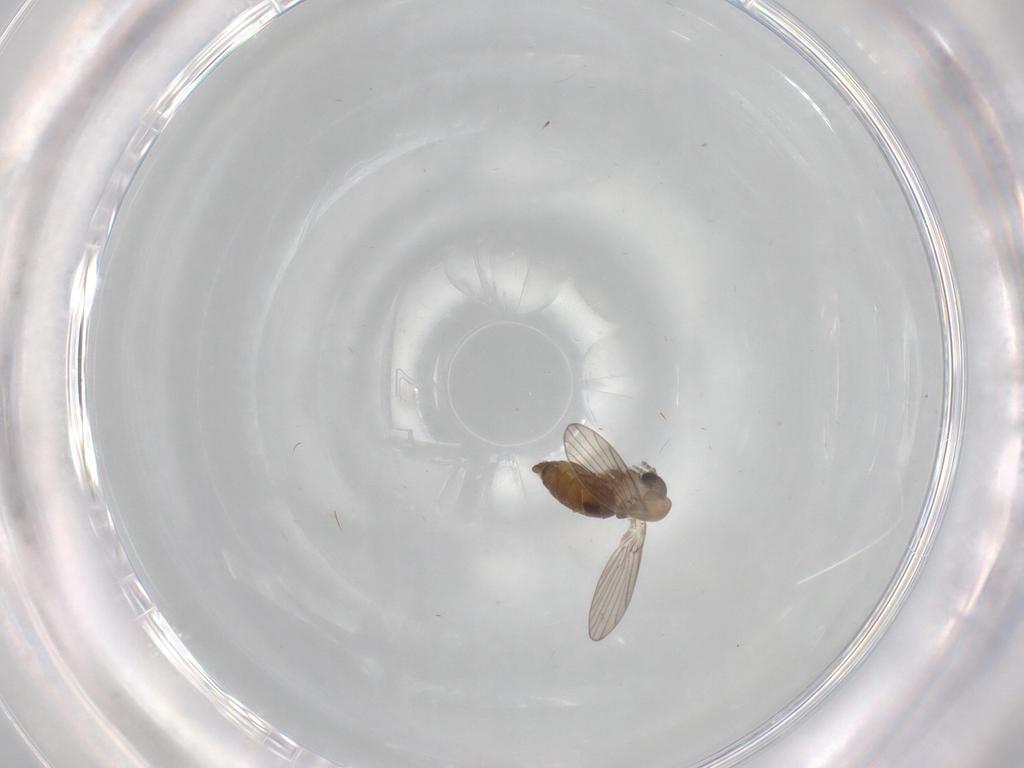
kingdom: Animalia
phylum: Arthropoda
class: Insecta
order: Diptera
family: Psychodidae
